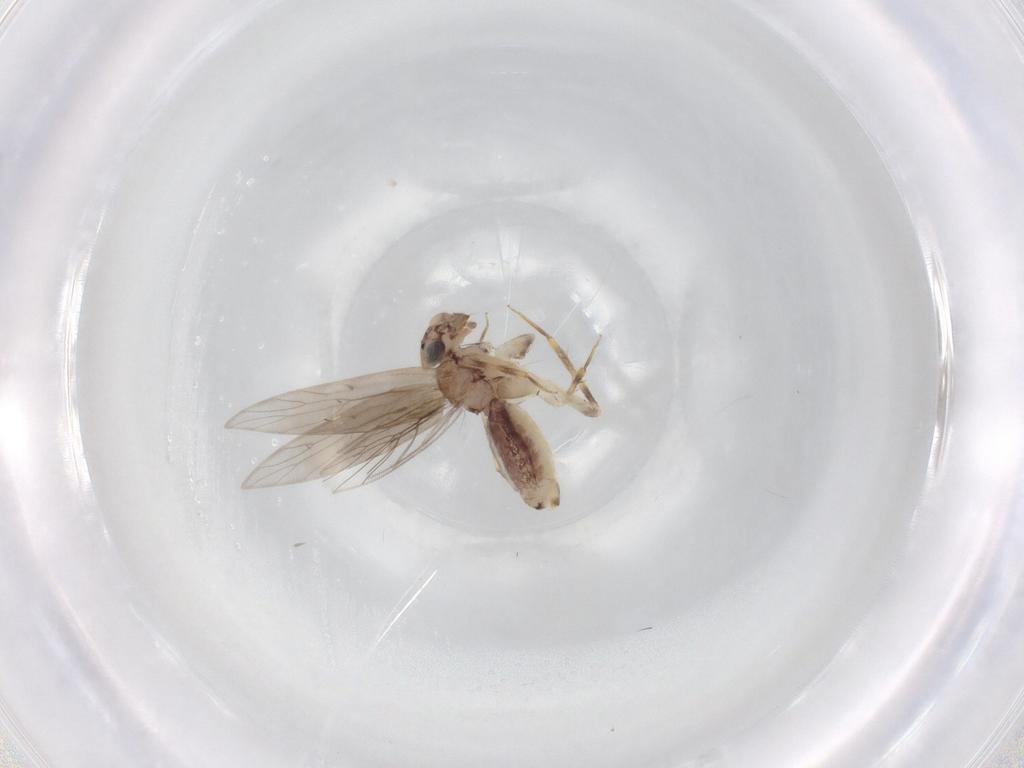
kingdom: Animalia
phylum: Arthropoda
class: Insecta
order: Psocodea
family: Lepidopsocidae
